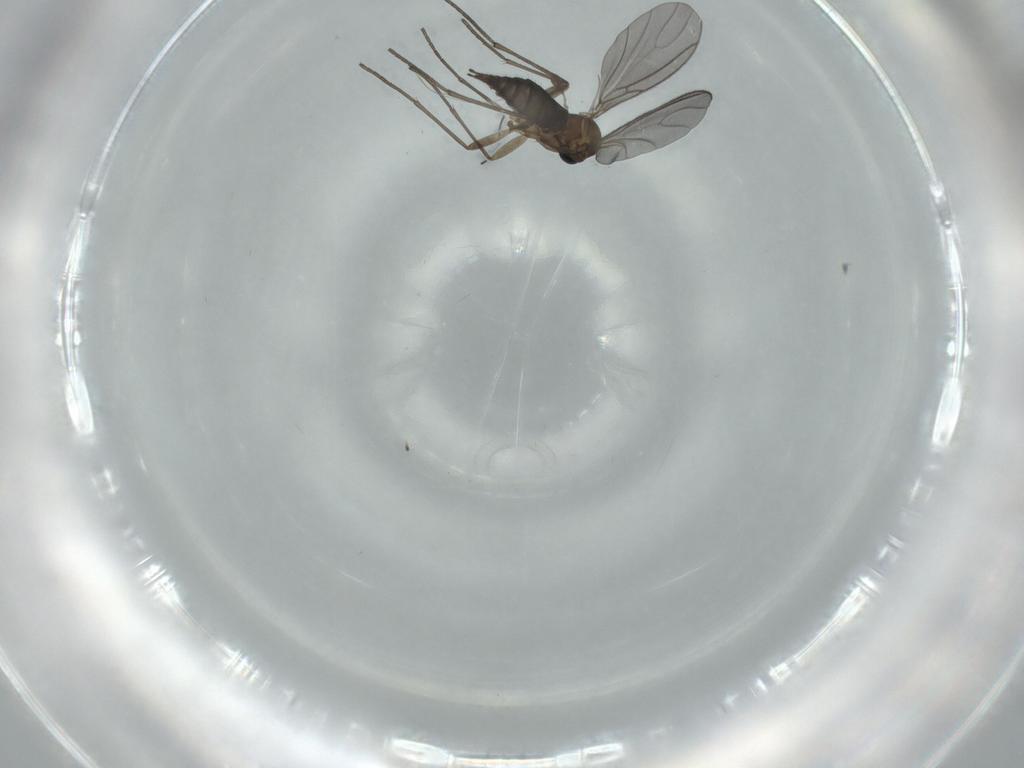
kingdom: Animalia
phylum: Arthropoda
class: Insecta
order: Diptera
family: Sciaridae
